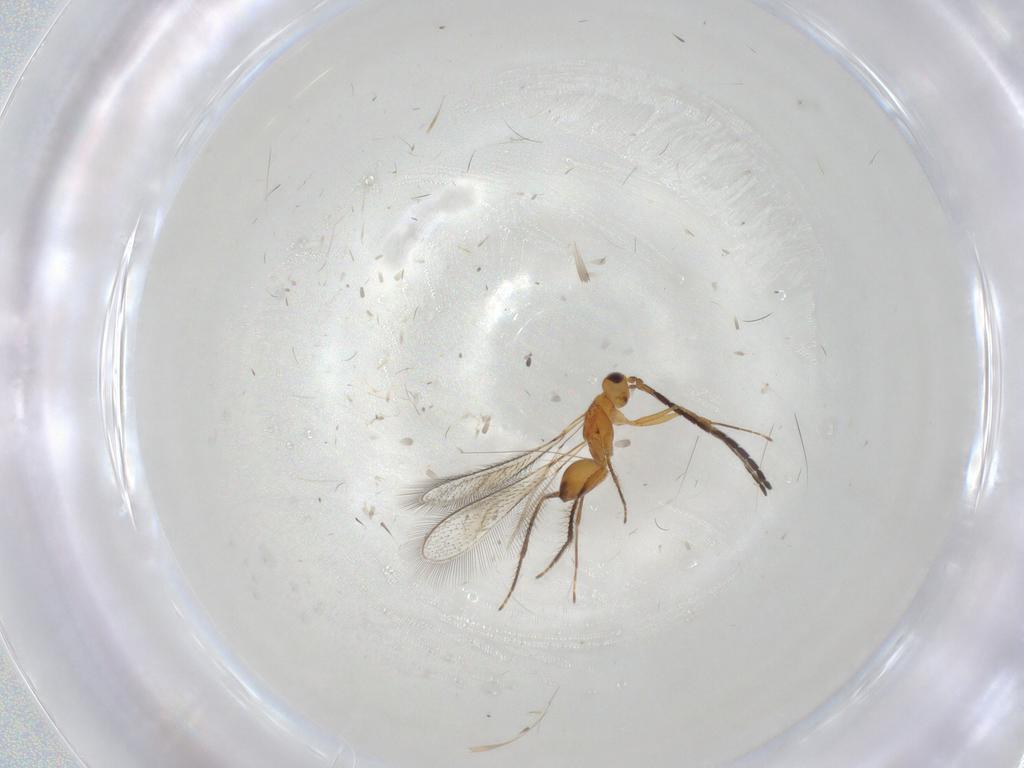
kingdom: Animalia
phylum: Arthropoda
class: Insecta
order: Hymenoptera
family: Mymaridae
